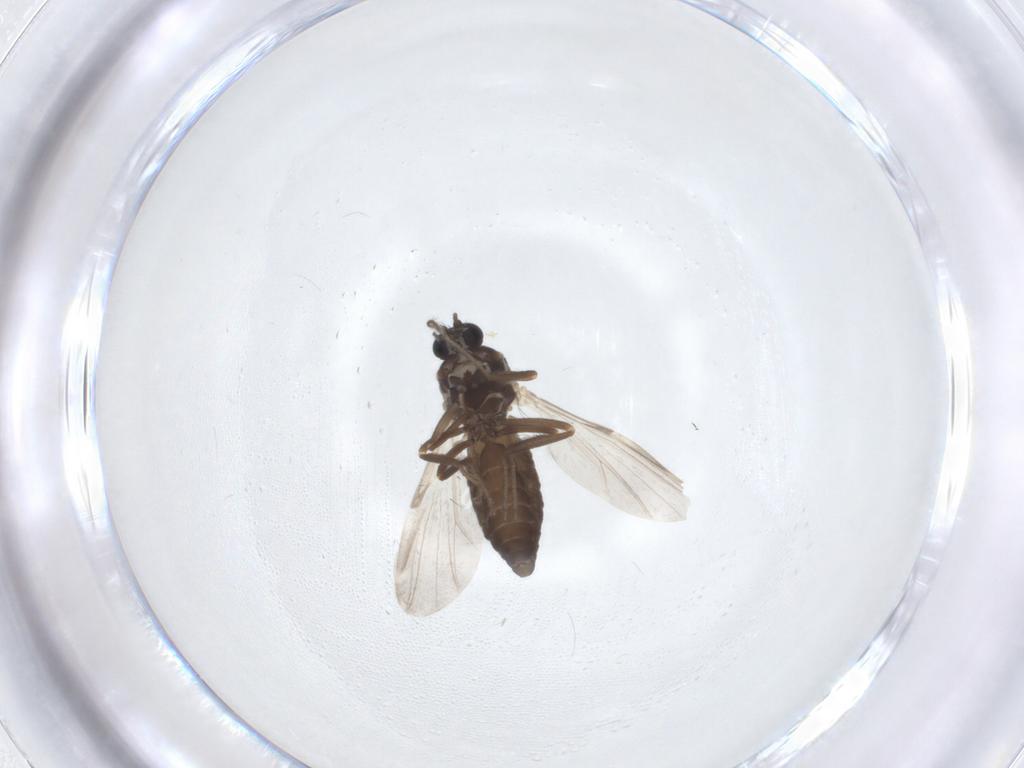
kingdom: Animalia
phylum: Arthropoda
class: Insecta
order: Diptera
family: Ceratopogonidae
